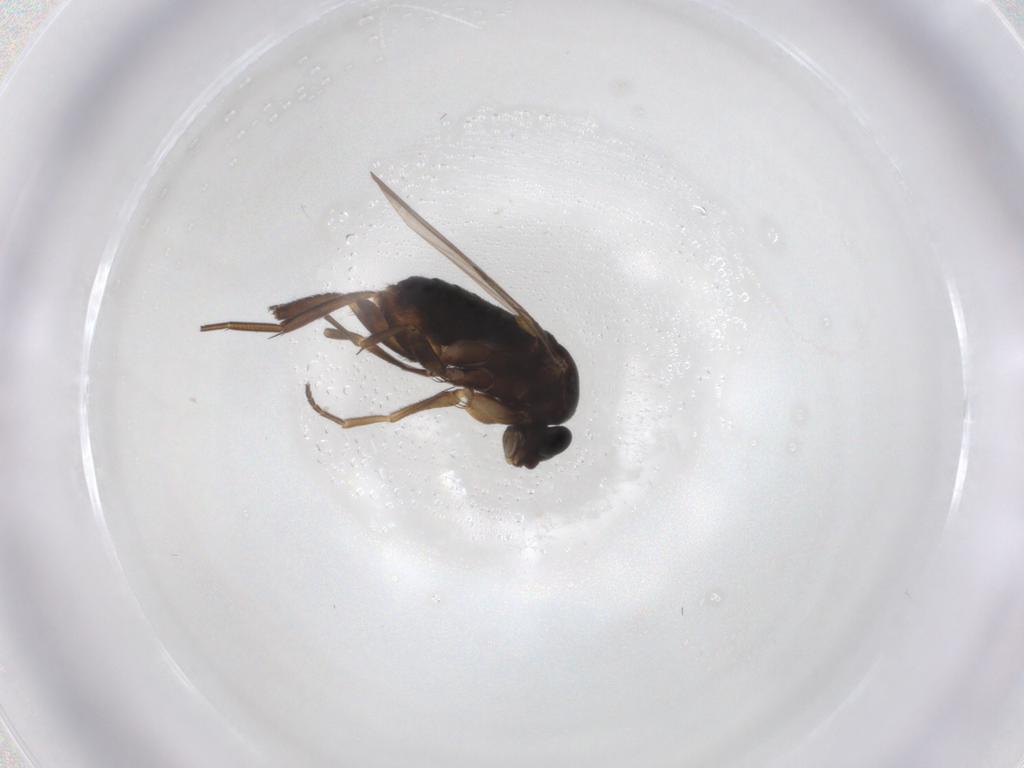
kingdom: Animalia
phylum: Arthropoda
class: Insecta
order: Diptera
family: Phoridae
